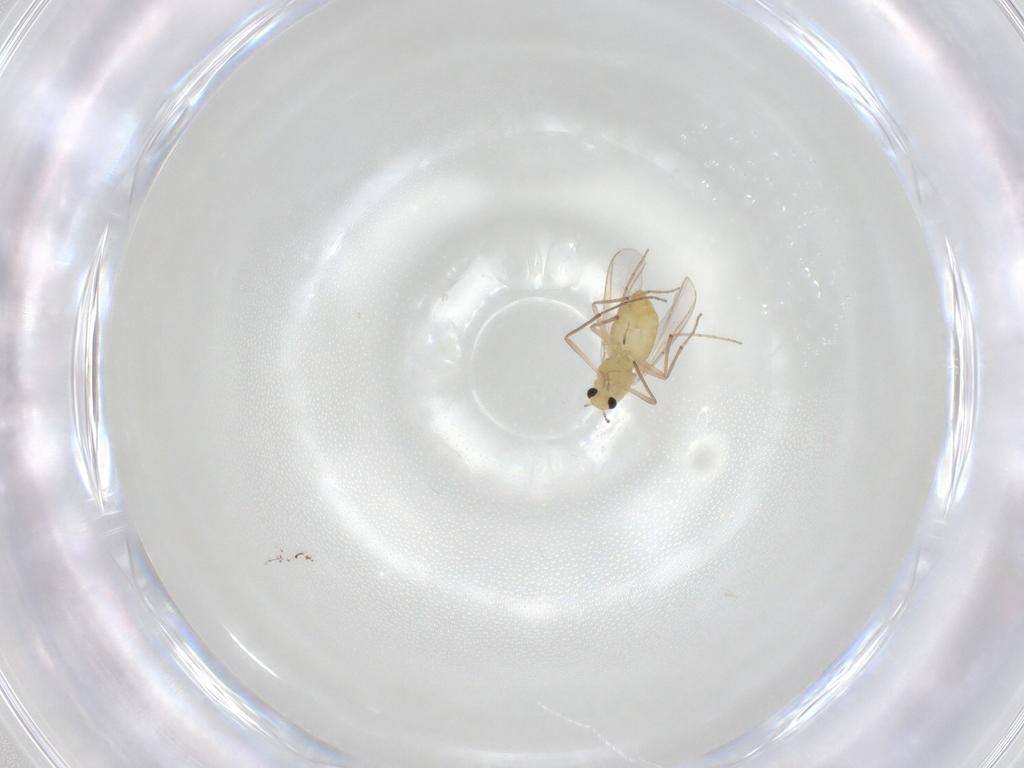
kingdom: Animalia
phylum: Arthropoda
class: Insecta
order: Diptera
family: Chironomidae
